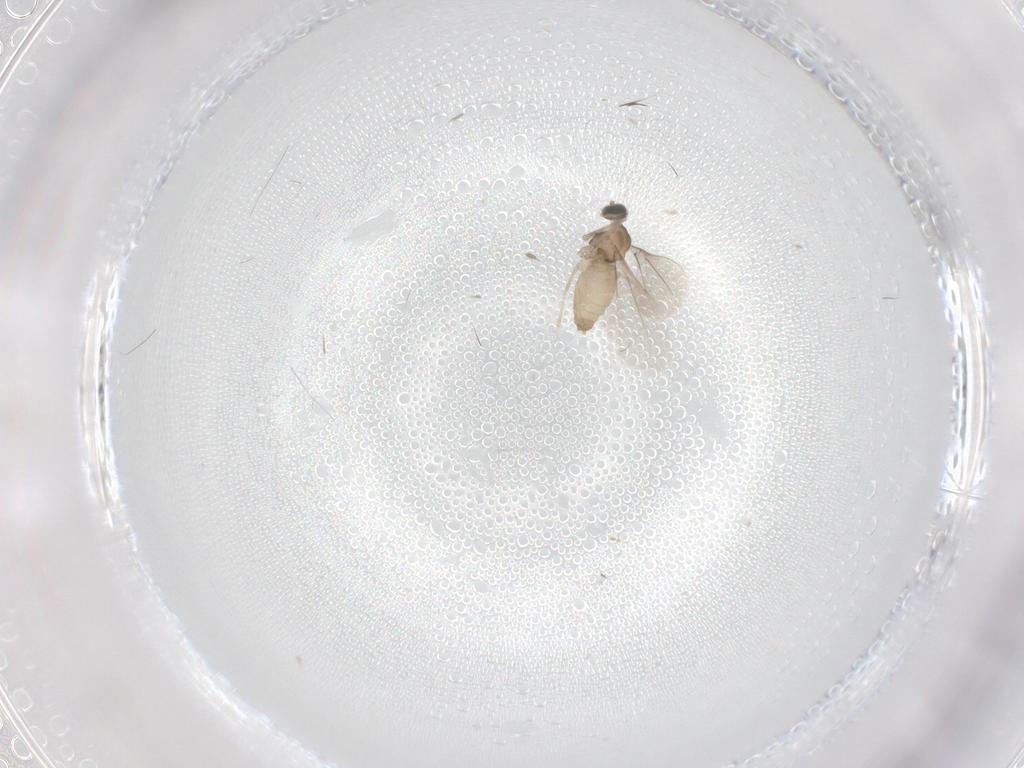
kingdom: Animalia
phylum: Arthropoda
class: Insecta
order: Diptera
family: Cecidomyiidae
